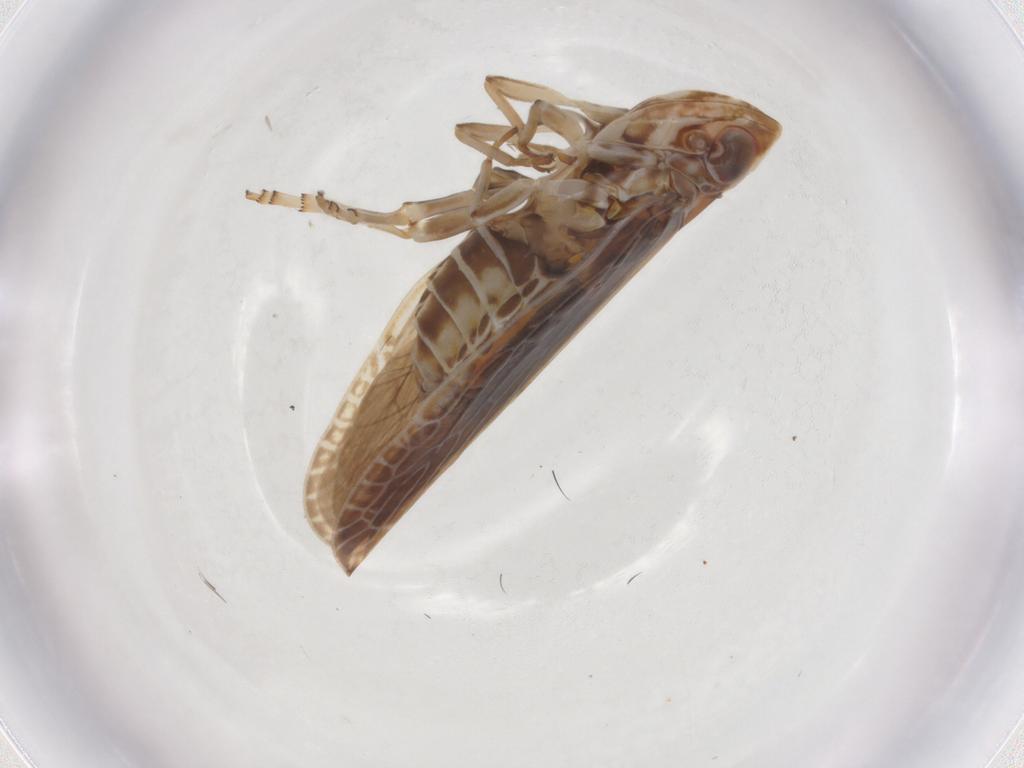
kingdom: Animalia
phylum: Arthropoda
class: Insecta
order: Hemiptera
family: Achilidae
